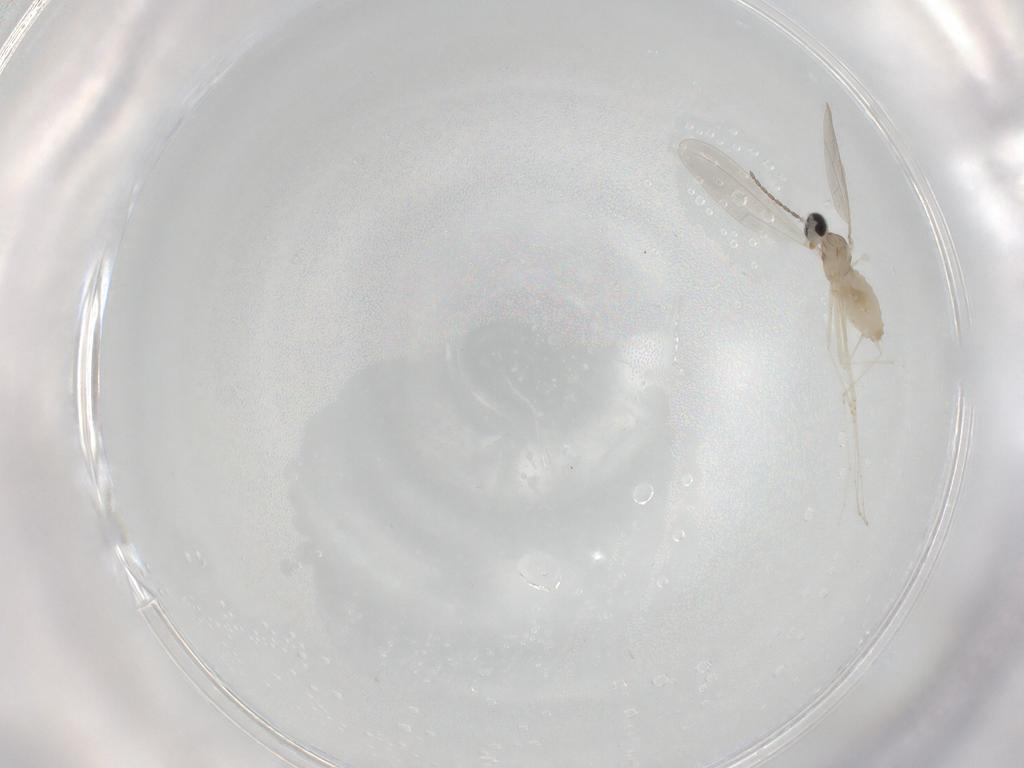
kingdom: Animalia
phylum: Arthropoda
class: Insecta
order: Diptera
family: Cecidomyiidae
